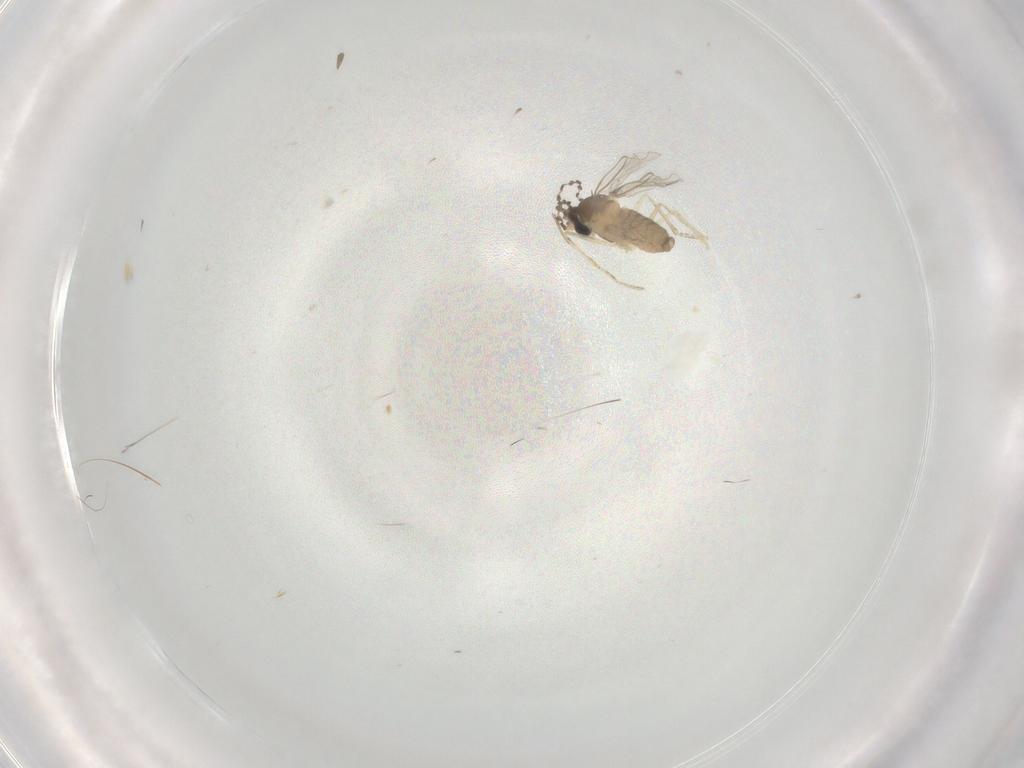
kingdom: Animalia
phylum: Arthropoda
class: Insecta
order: Diptera
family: Cecidomyiidae
